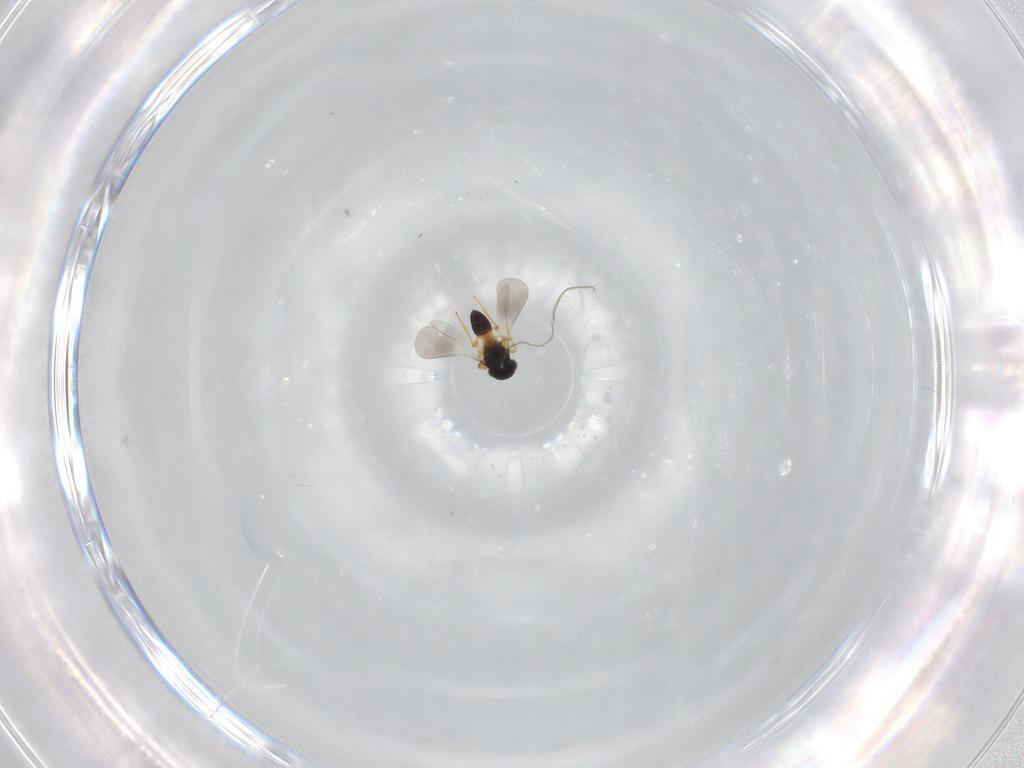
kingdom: Animalia
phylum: Arthropoda
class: Insecta
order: Hymenoptera
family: Platygastridae
